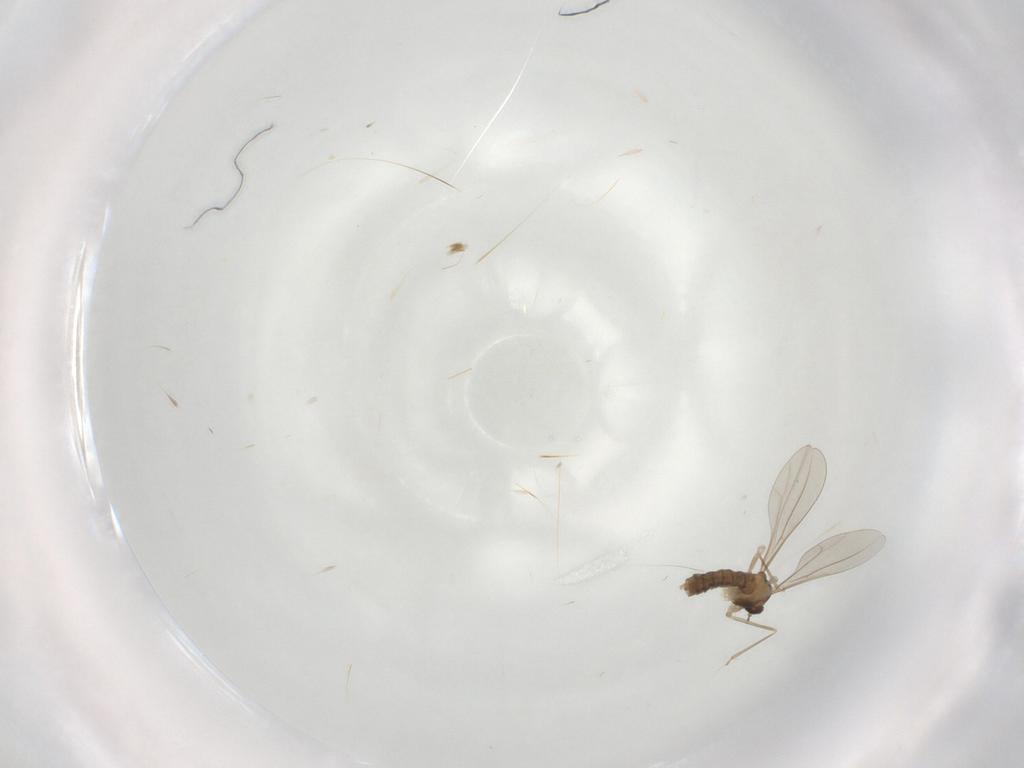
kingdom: Animalia
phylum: Arthropoda
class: Insecta
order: Diptera
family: Cecidomyiidae
